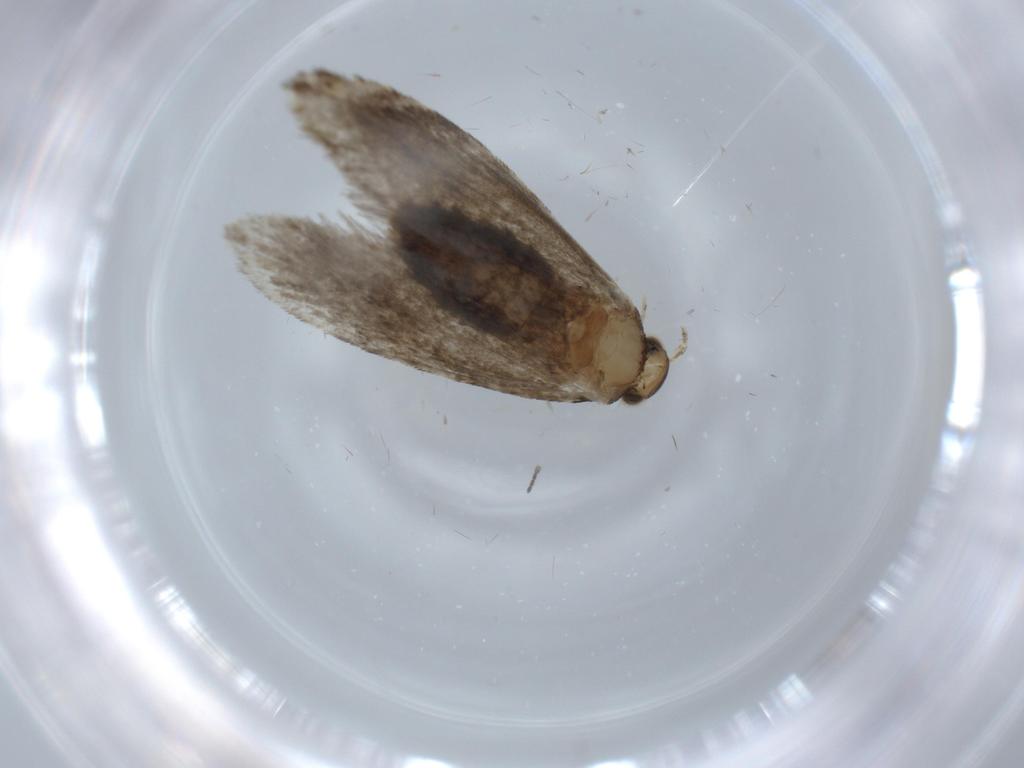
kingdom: Animalia
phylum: Arthropoda
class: Insecta
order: Lepidoptera
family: Tineidae
